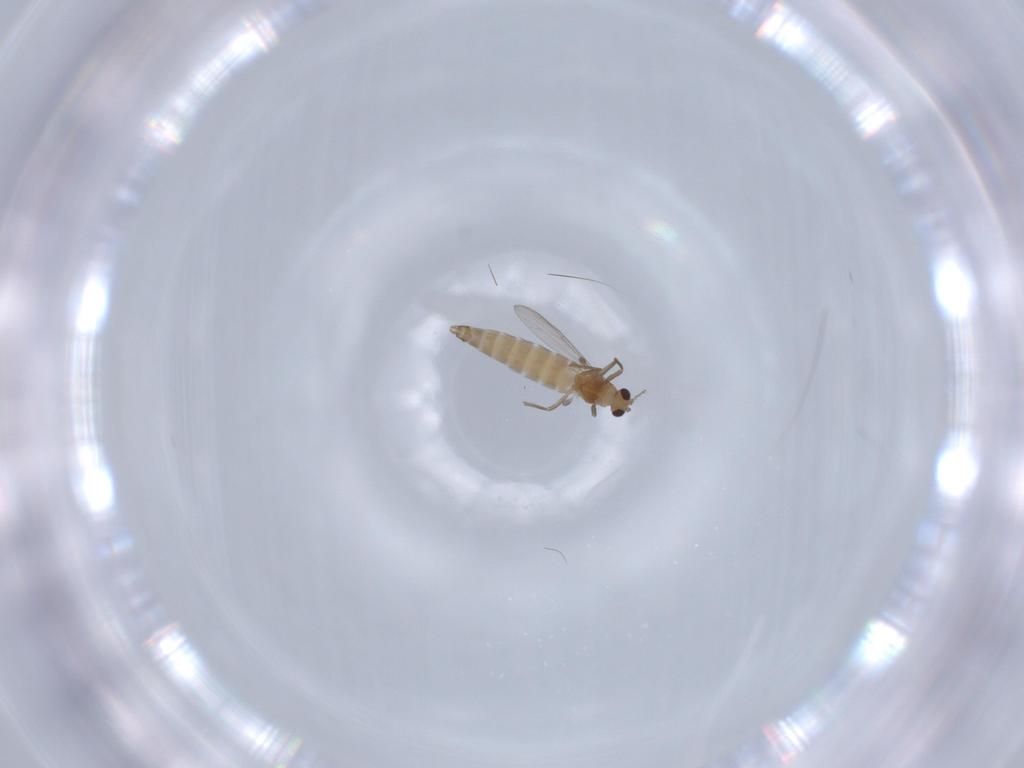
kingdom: Animalia
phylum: Arthropoda
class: Insecta
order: Diptera
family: Chironomidae
